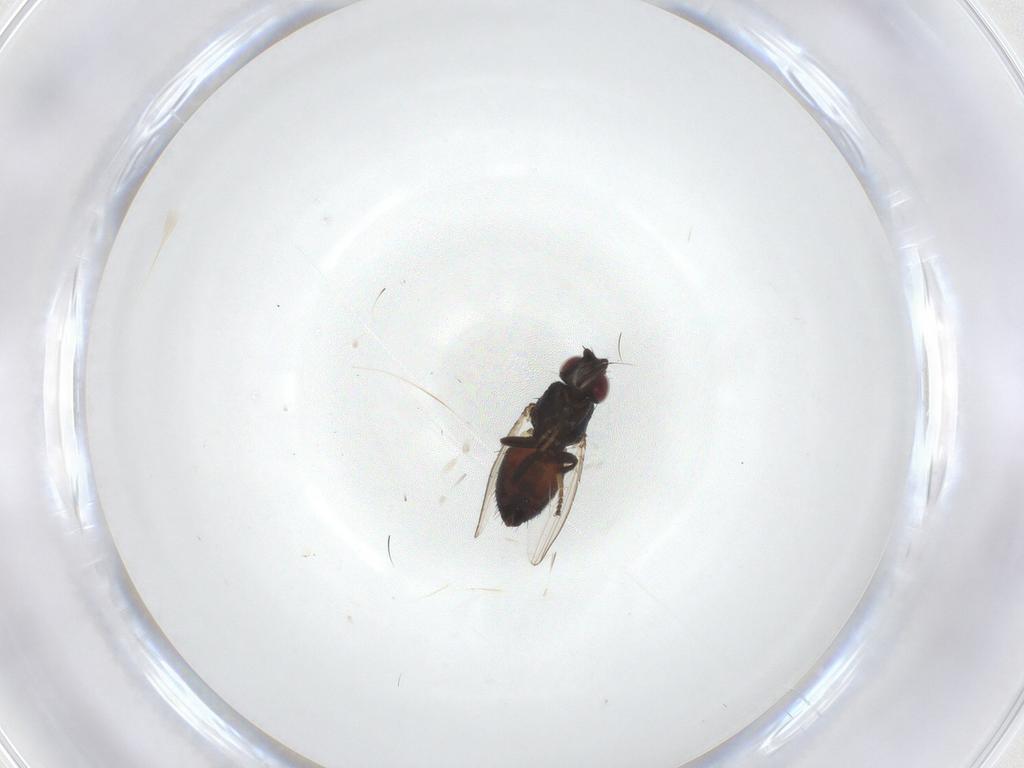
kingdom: Animalia
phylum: Arthropoda
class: Insecta
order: Diptera
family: Milichiidae
